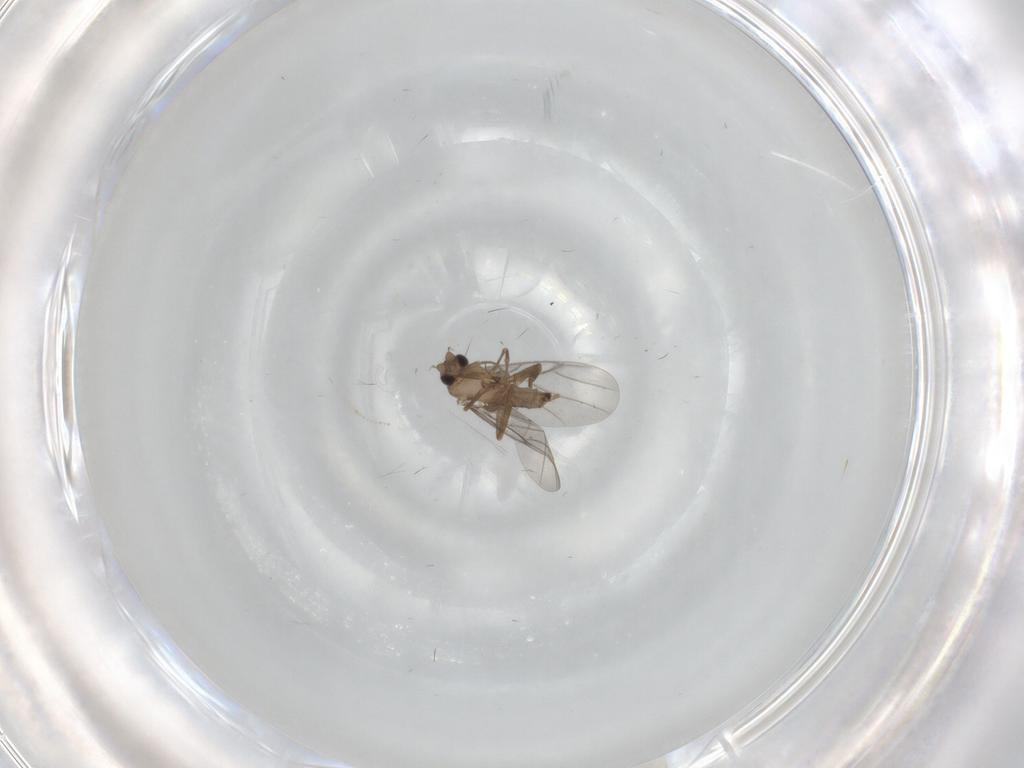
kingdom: Animalia
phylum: Arthropoda
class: Insecta
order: Diptera
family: Cecidomyiidae
